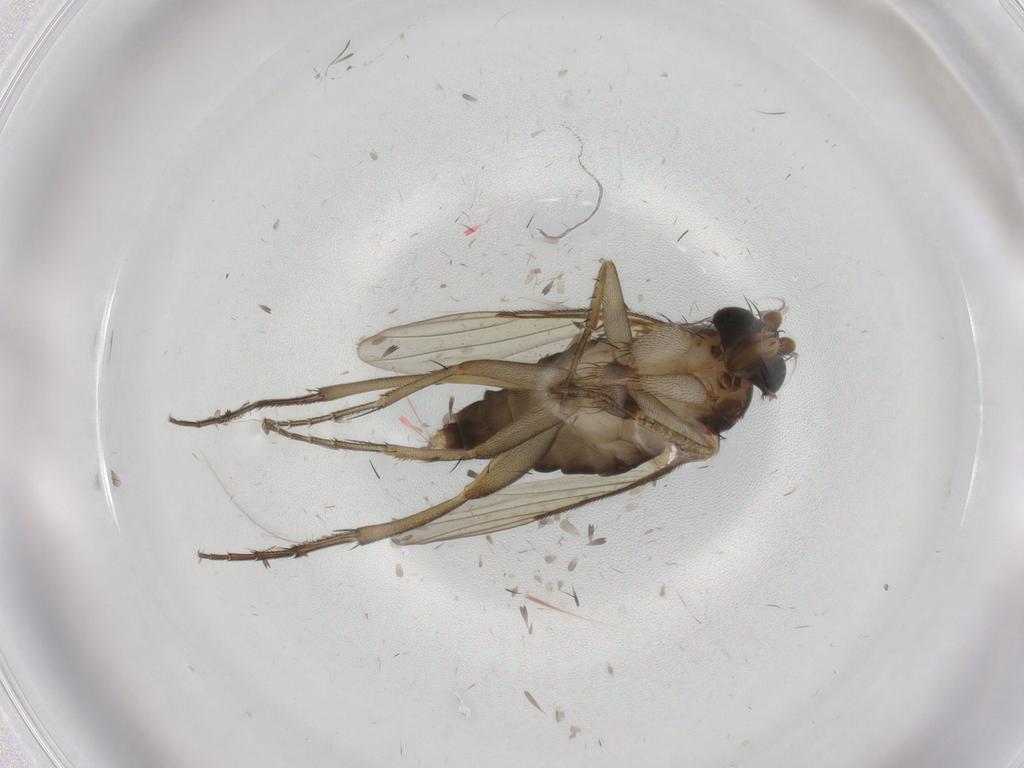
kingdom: Animalia
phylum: Arthropoda
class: Insecta
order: Diptera
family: Phoridae
